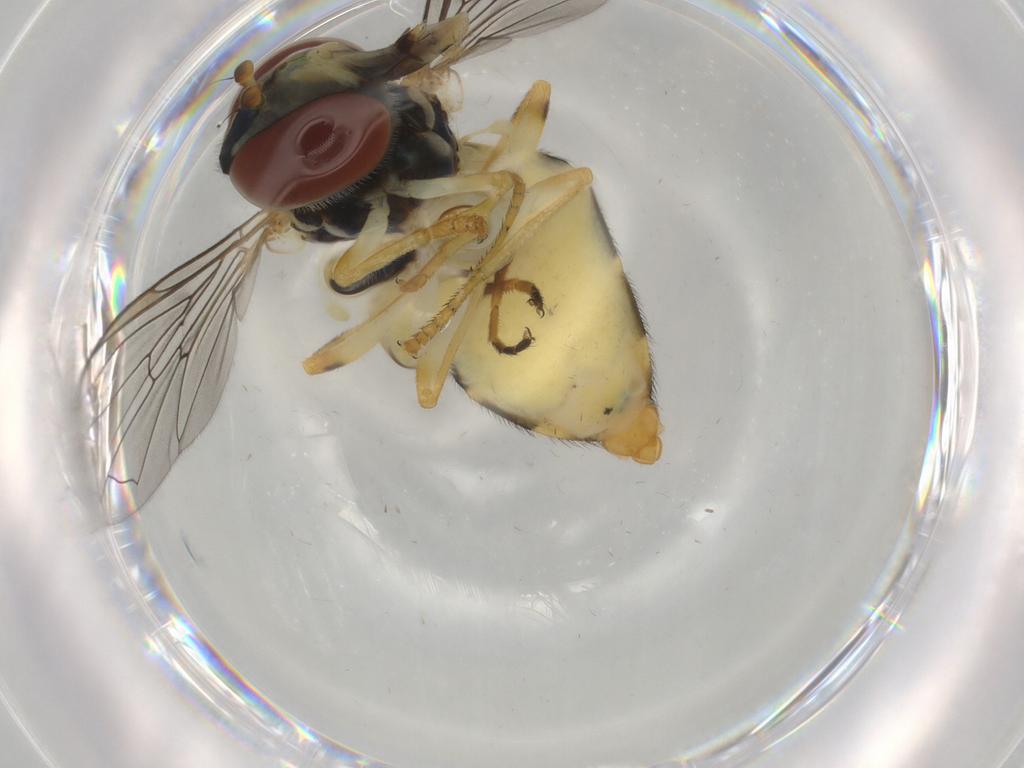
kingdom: Animalia
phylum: Arthropoda
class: Insecta
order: Diptera
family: Syrphidae
